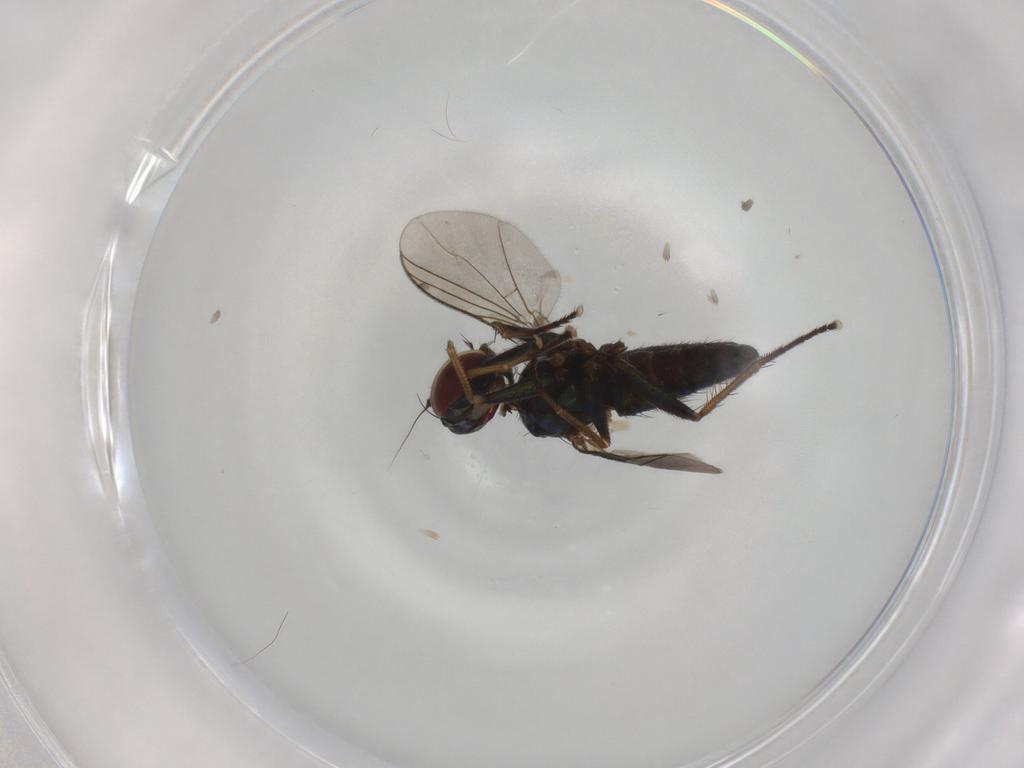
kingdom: Animalia
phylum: Arthropoda
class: Insecta
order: Diptera
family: Dolichopodidae
